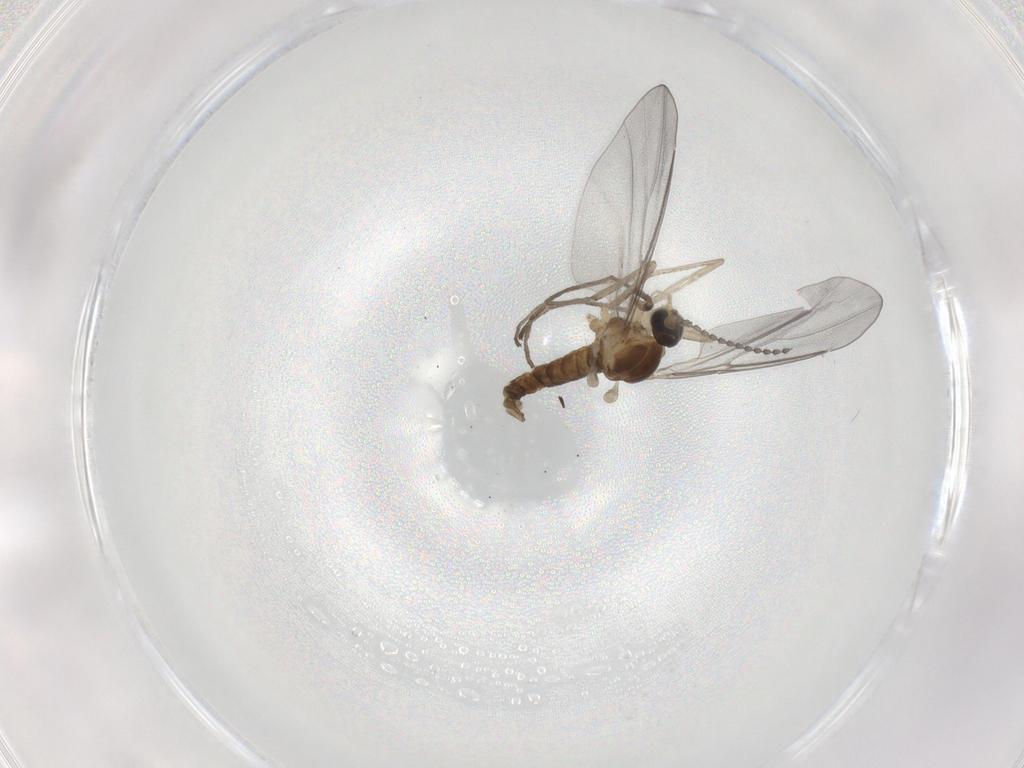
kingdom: Animalia
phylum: Arthropoda
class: Insecta
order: Diptera
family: Cecidomyiidae
